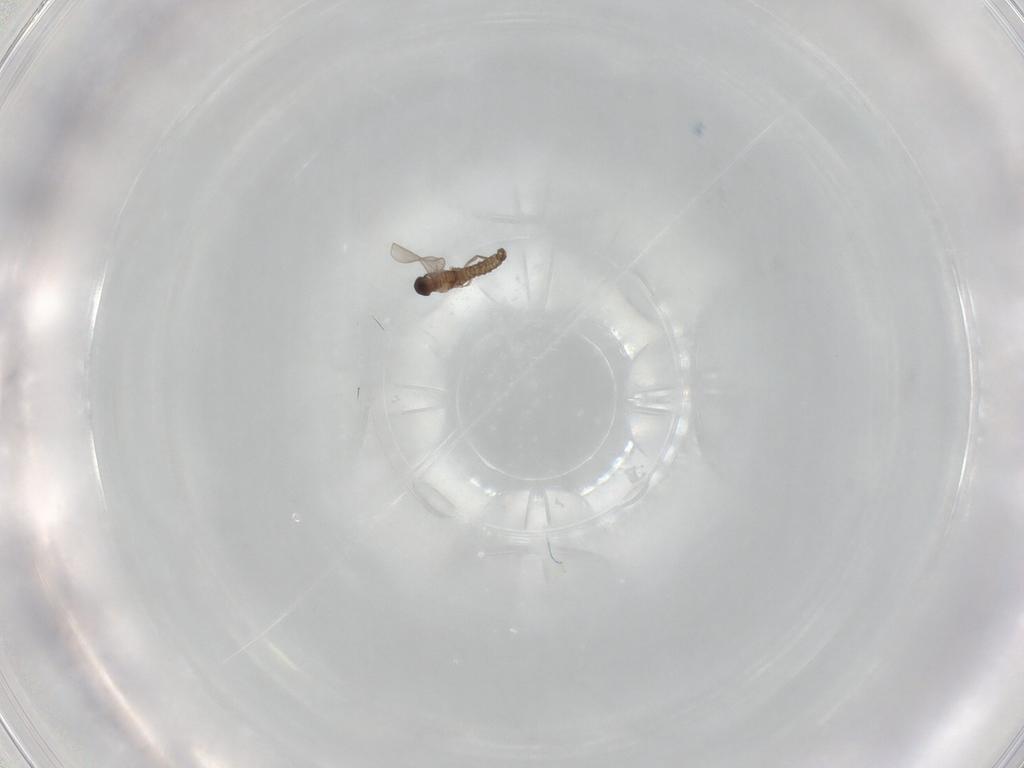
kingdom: Animalia
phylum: Arthropoda
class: Insecta
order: Diptera
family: Cecidomyiidae
